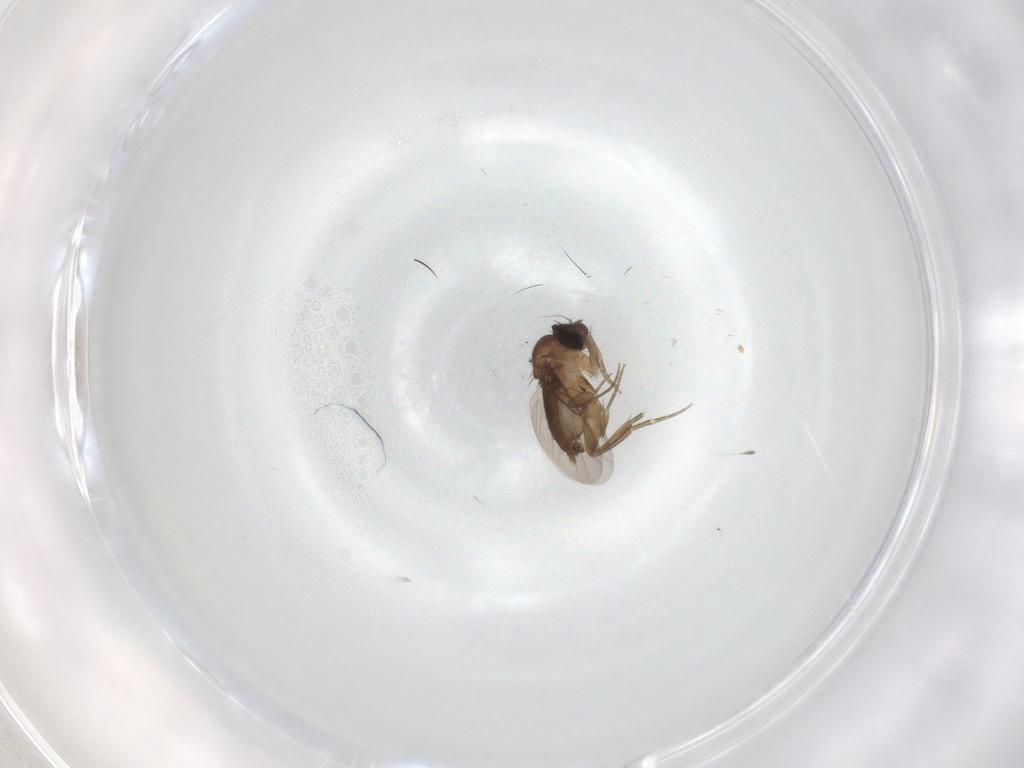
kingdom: Animalia
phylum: Arthropoda
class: Insecta
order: Diptera
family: Phoridae
